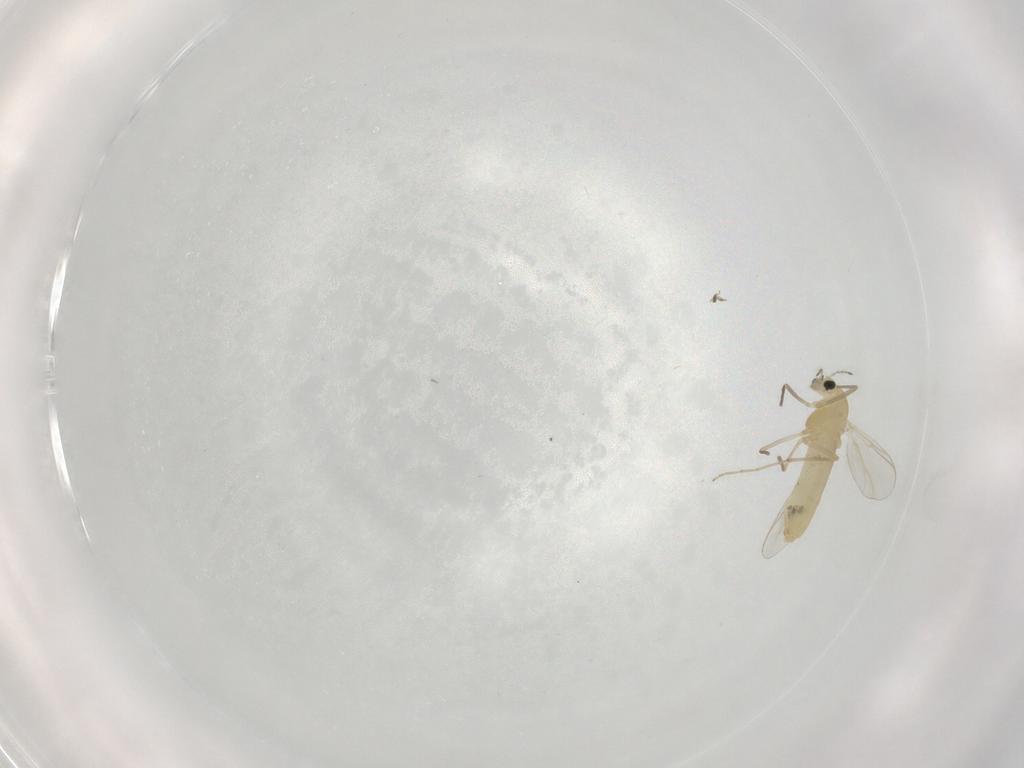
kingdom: Animalia
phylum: Arthropoda
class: Insecta
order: Diptera
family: Chironomidae
